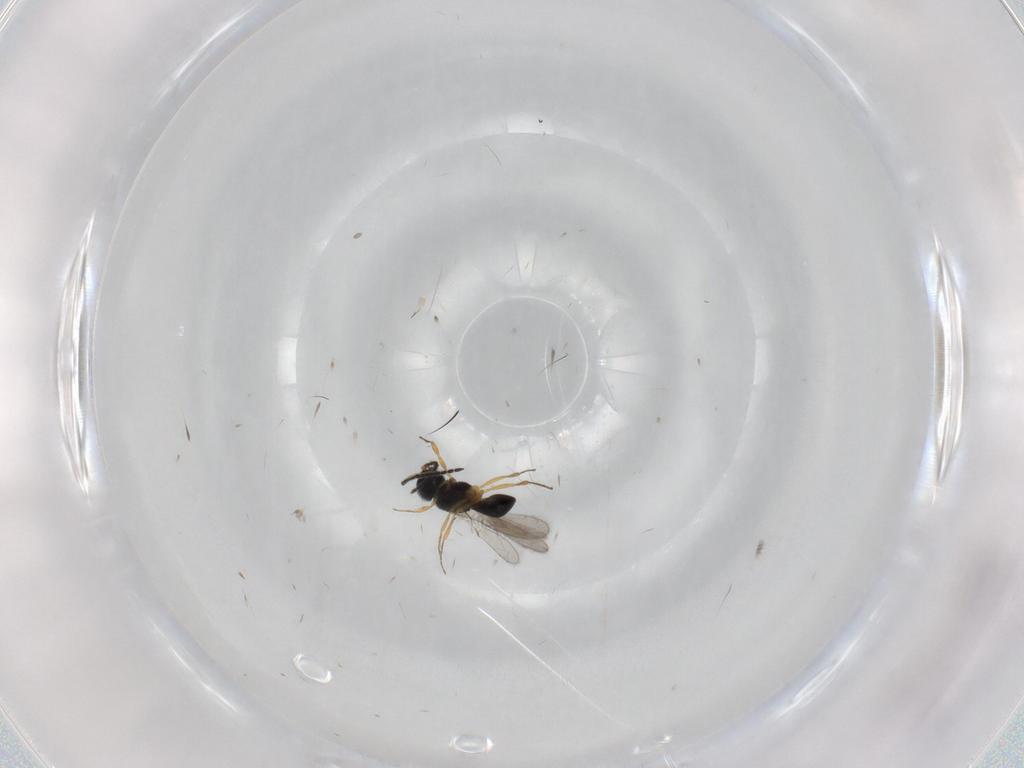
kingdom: Animalia
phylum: Arthropoda
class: Insecta
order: Hymenoptera
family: Scelionidae
